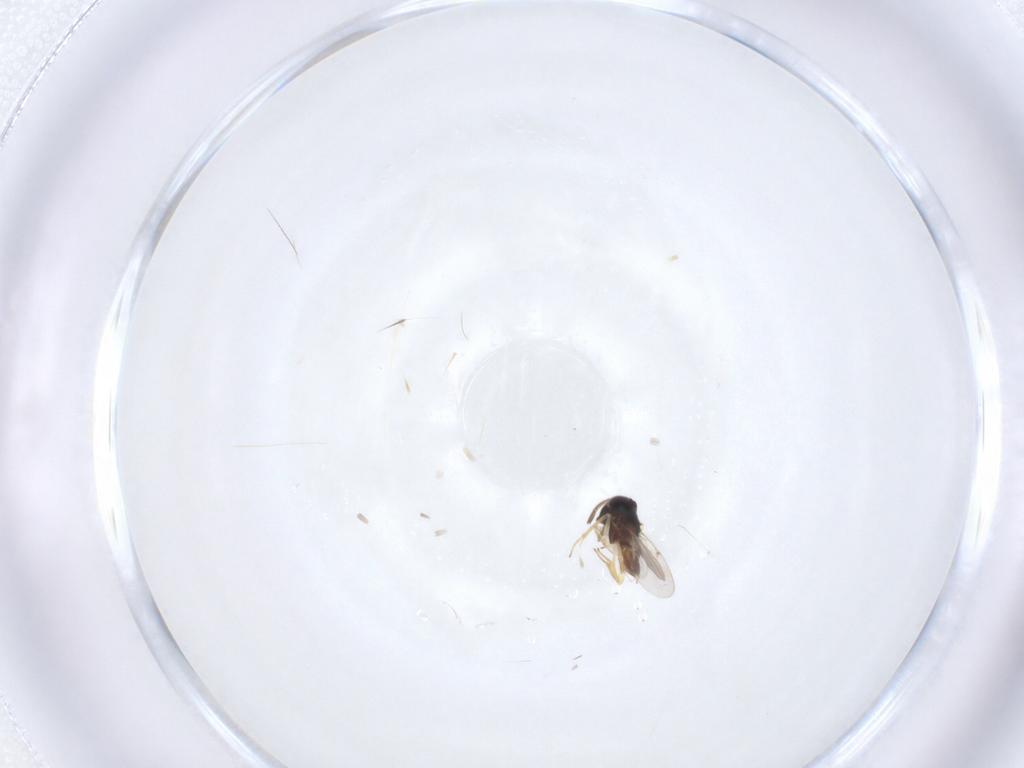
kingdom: Animalia
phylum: Arthropoda
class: Insecta
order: Hymenoptera
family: Encyrtidae
